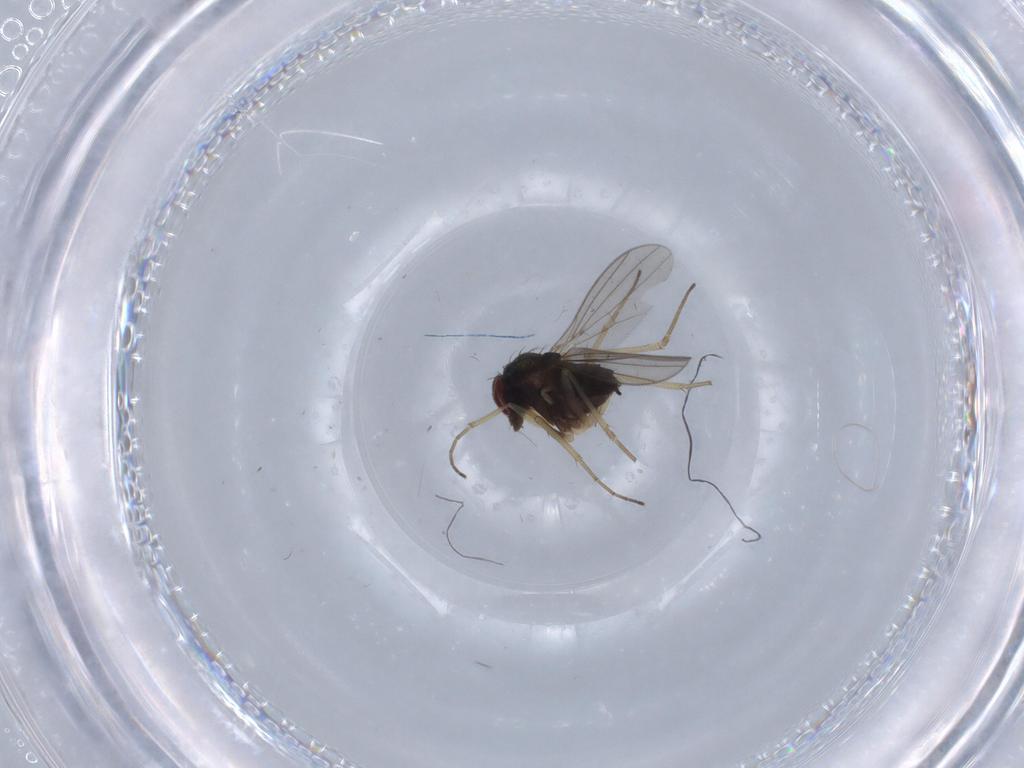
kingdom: Animalia
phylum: Arthropoda
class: Insecta
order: Diptera
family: Dolichopodidae
